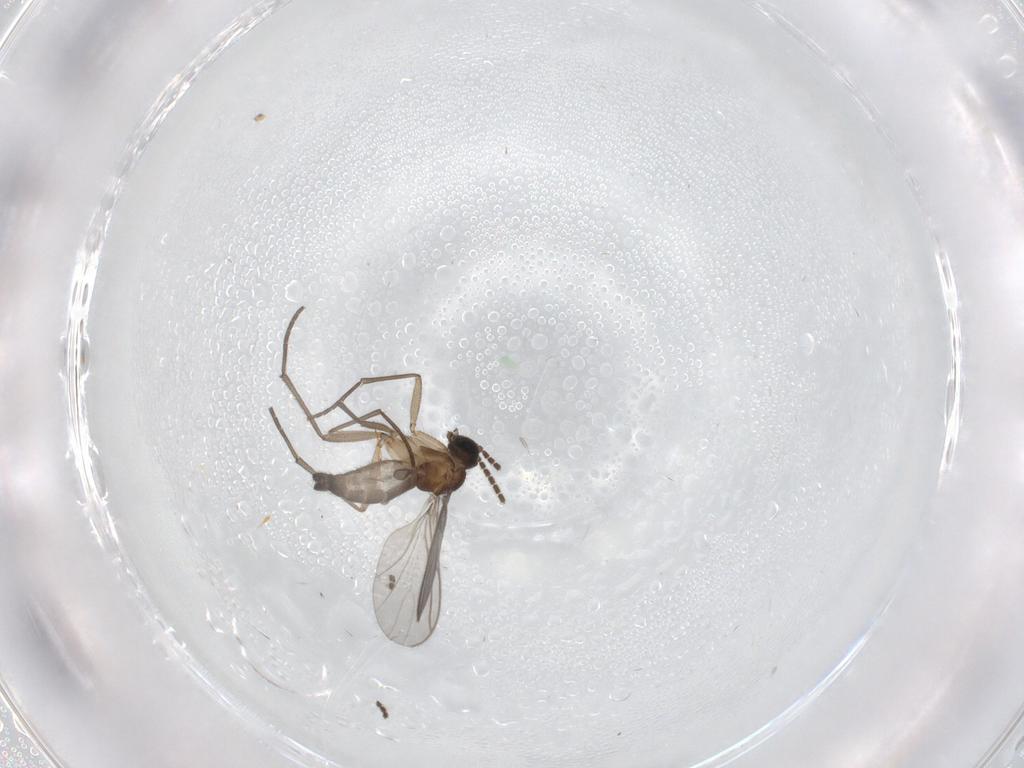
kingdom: Animalia
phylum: Arthropoda
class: Insecta
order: Diptera
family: Sciaridae
